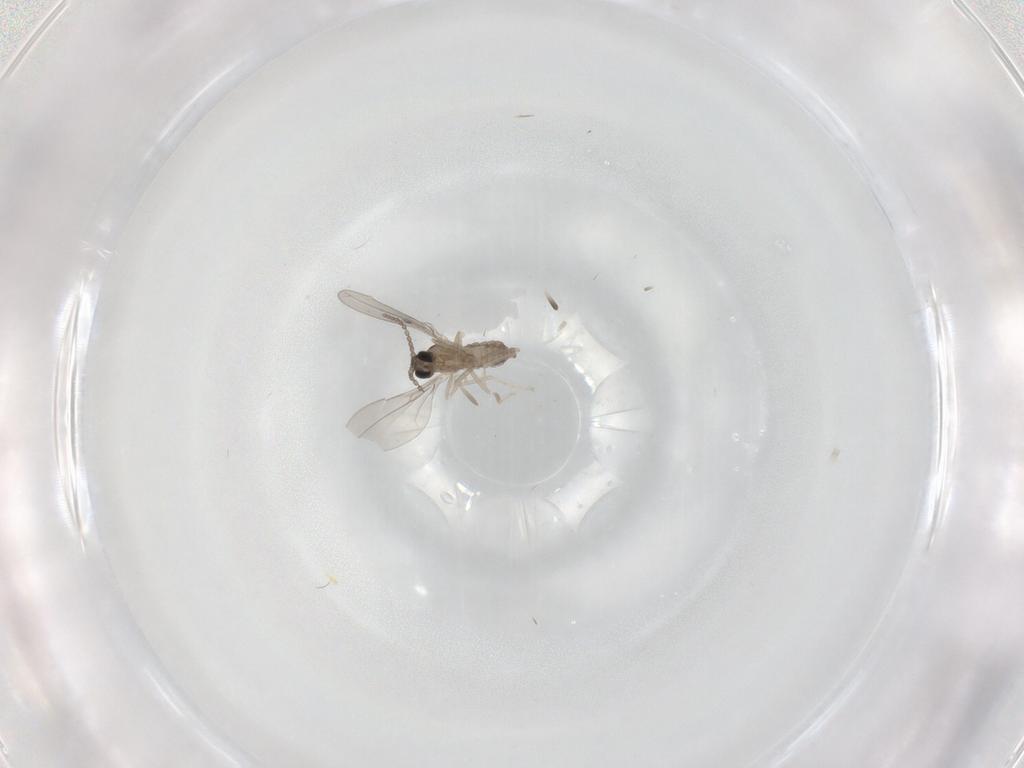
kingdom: Animalia
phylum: Arthropoda
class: Insecta
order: Diptera
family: Cecidomyiidae
